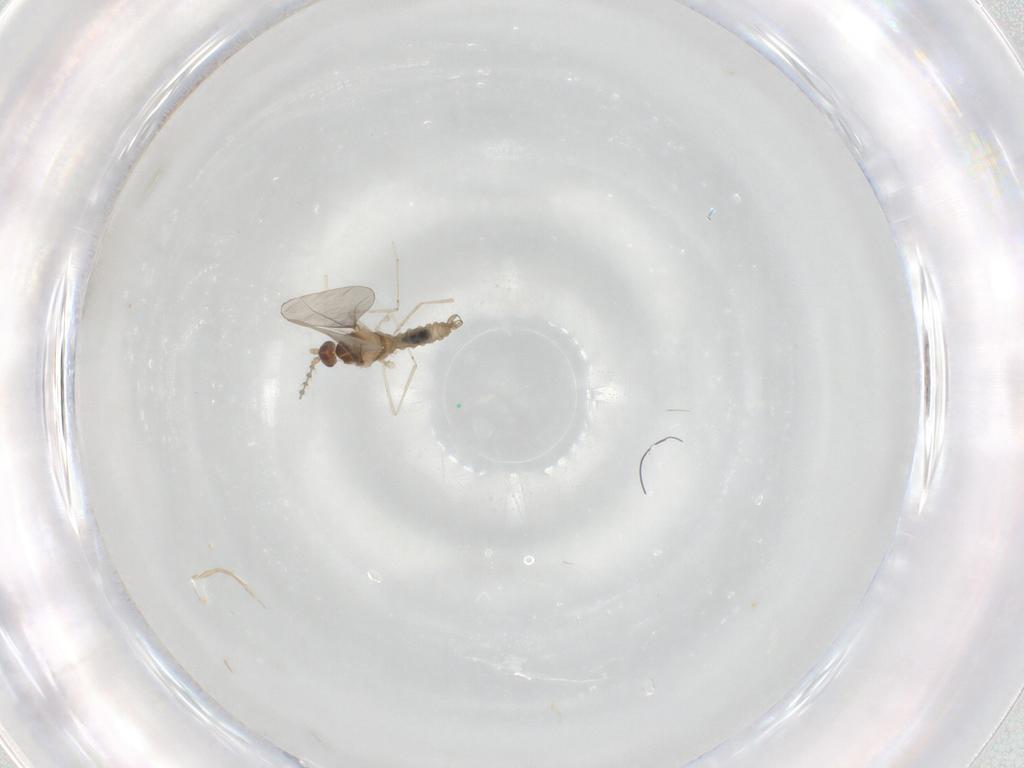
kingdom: Animalia
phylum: Arthropoda
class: Insecta
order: Diptera
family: Cecidomyiidae
